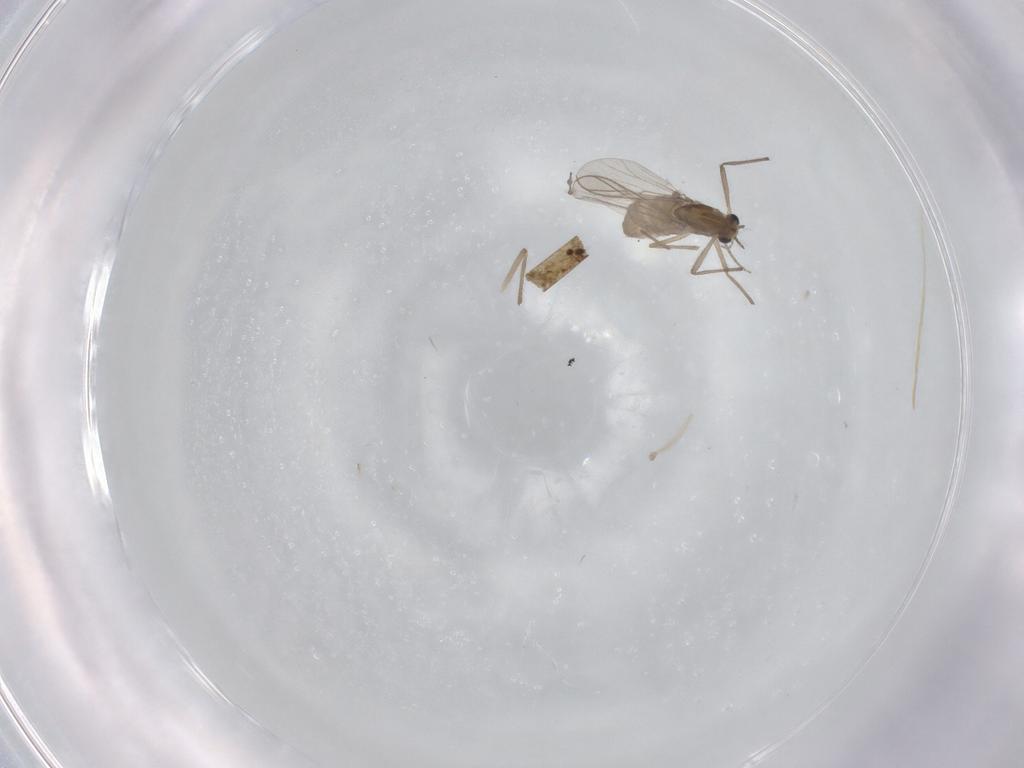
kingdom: Animalia
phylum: Arthropoda
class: Insecta
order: Diptera
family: Chironomidae
